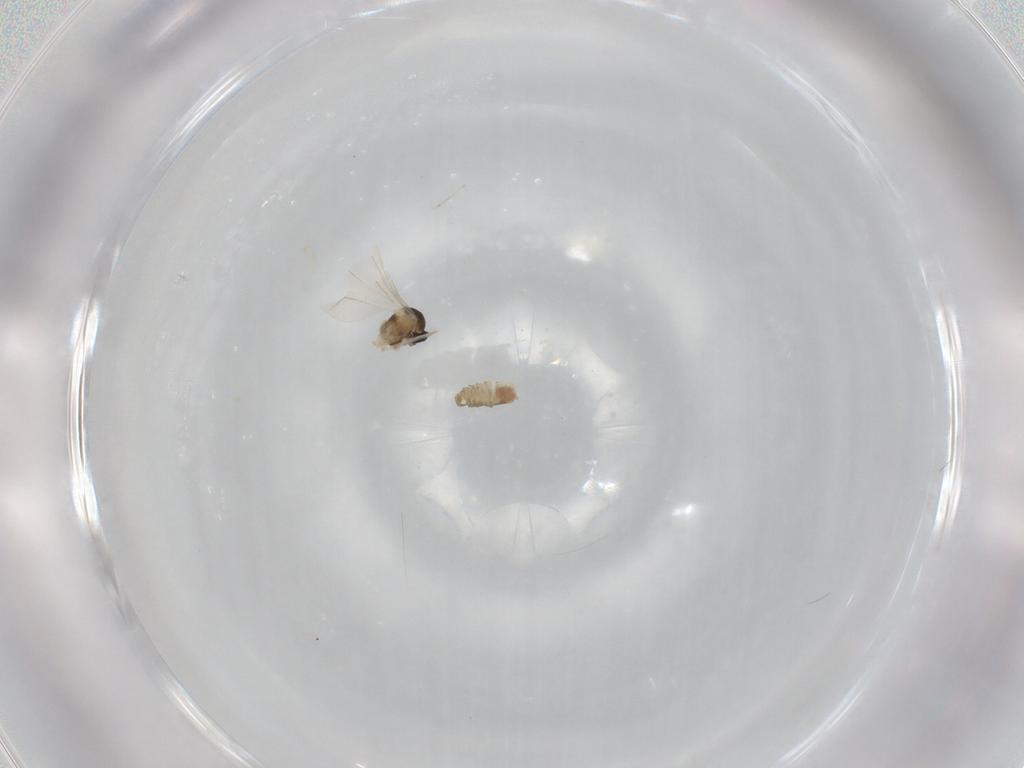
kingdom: Animalia
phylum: Arthropoda
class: Insecta
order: Diptera
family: Cecidomyiidae
